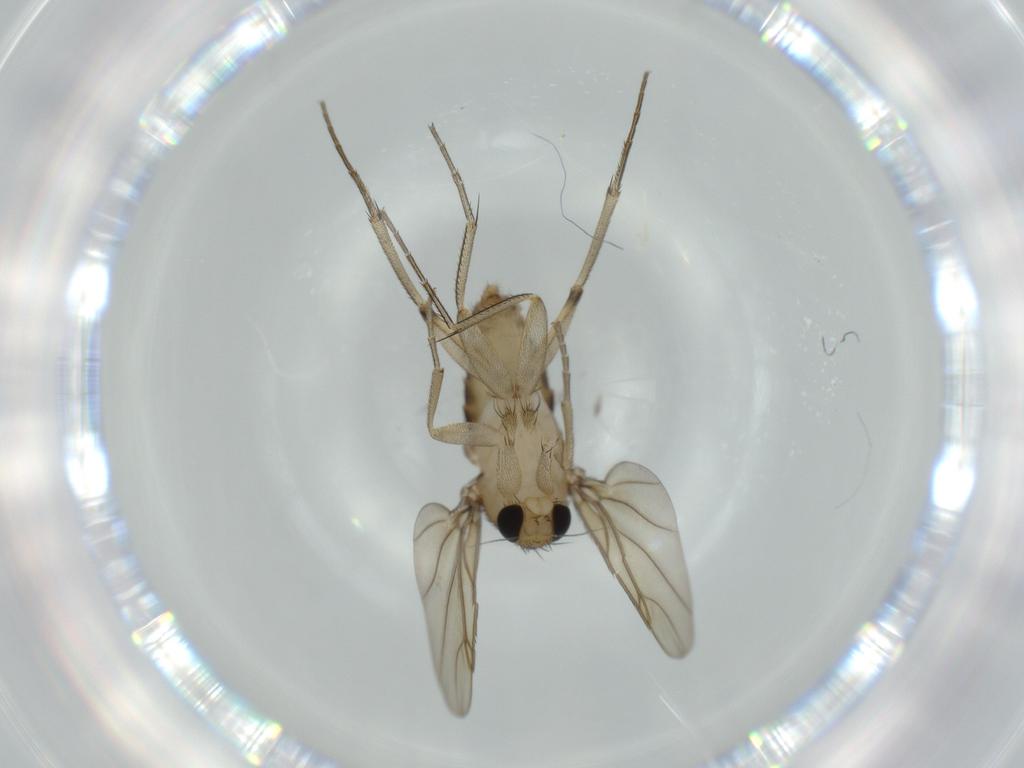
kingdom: Animalia
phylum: Arthropoda
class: Insecta
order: Diptera
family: Phoridae
